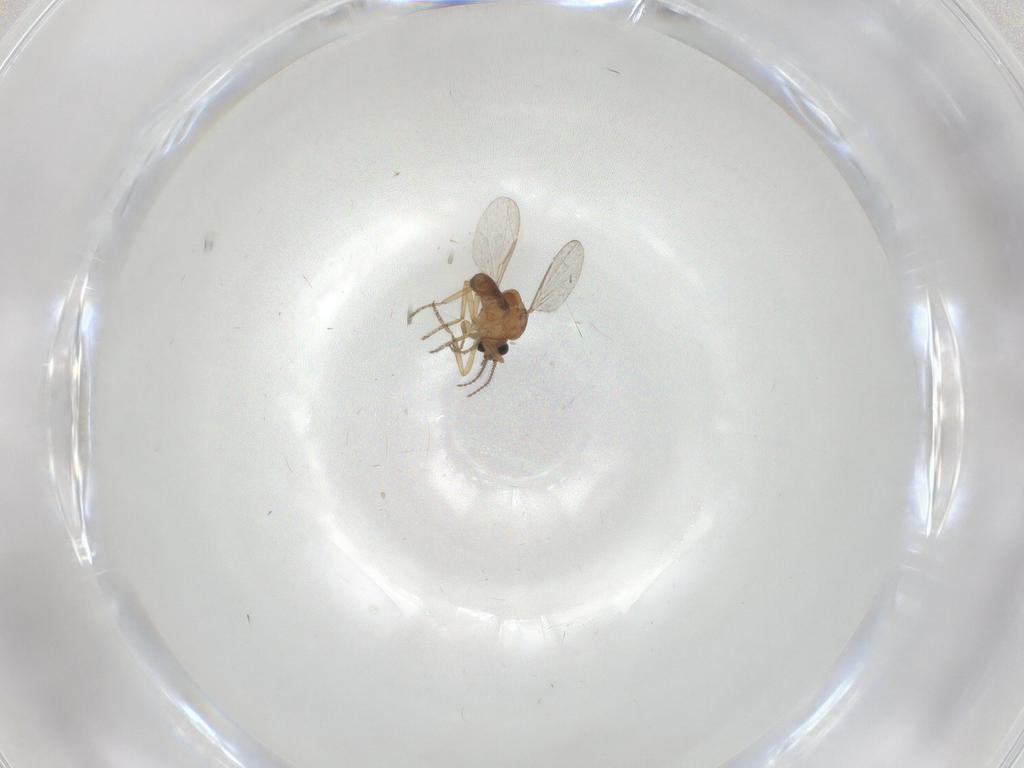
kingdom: Animalia
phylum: Arthropoda
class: Insecta
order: Diptera
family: Ceratopogonidae
